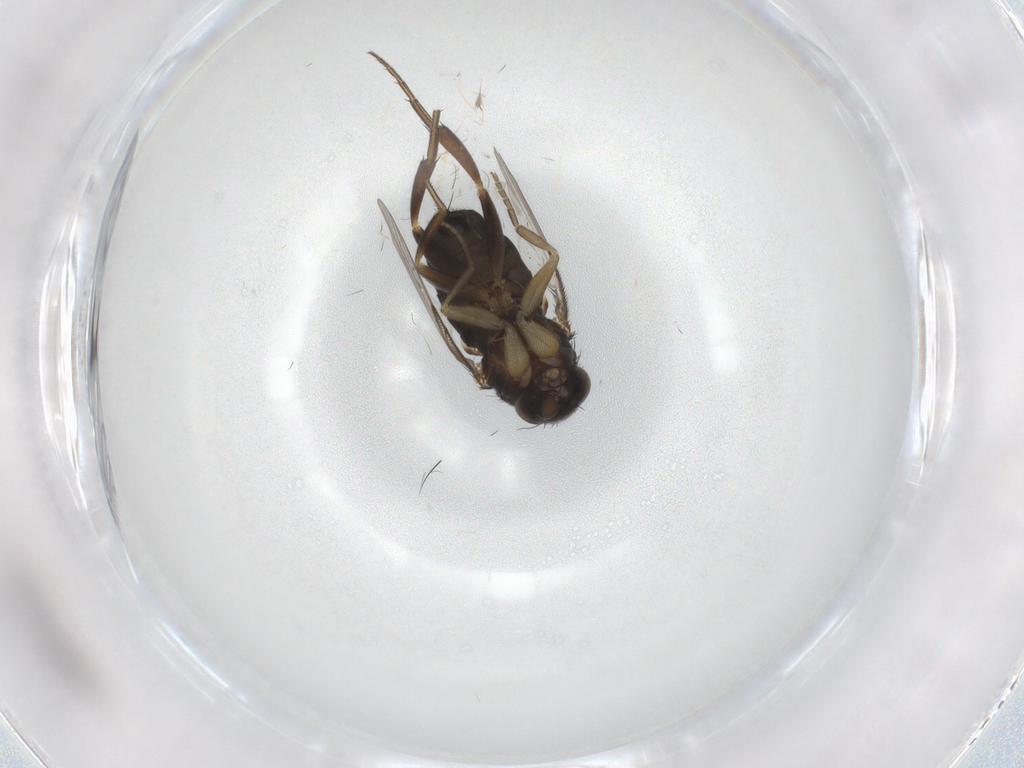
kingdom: Animalia
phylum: Arthropoda
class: Insecta
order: Diptera
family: Phoridae
